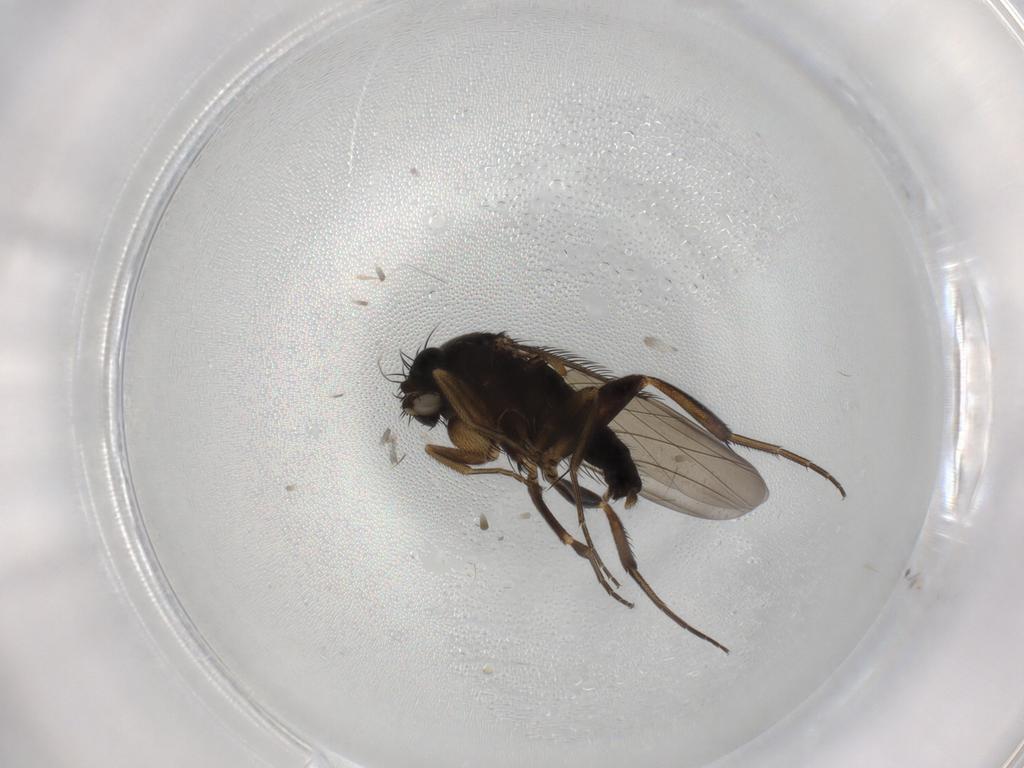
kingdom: Animalia
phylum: Arthropoda
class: Insecta
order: Diptera
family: Phoridae
